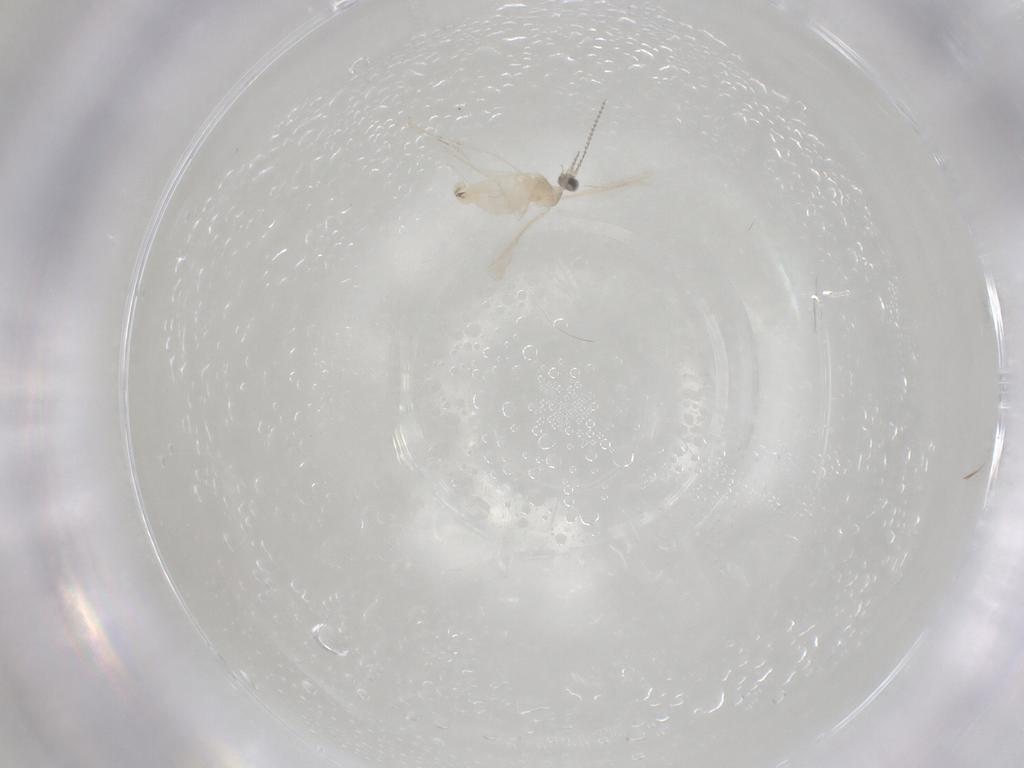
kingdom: Animalia
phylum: Arthropoda
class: Insecta
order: Diptera
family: Cecidomyiidae
